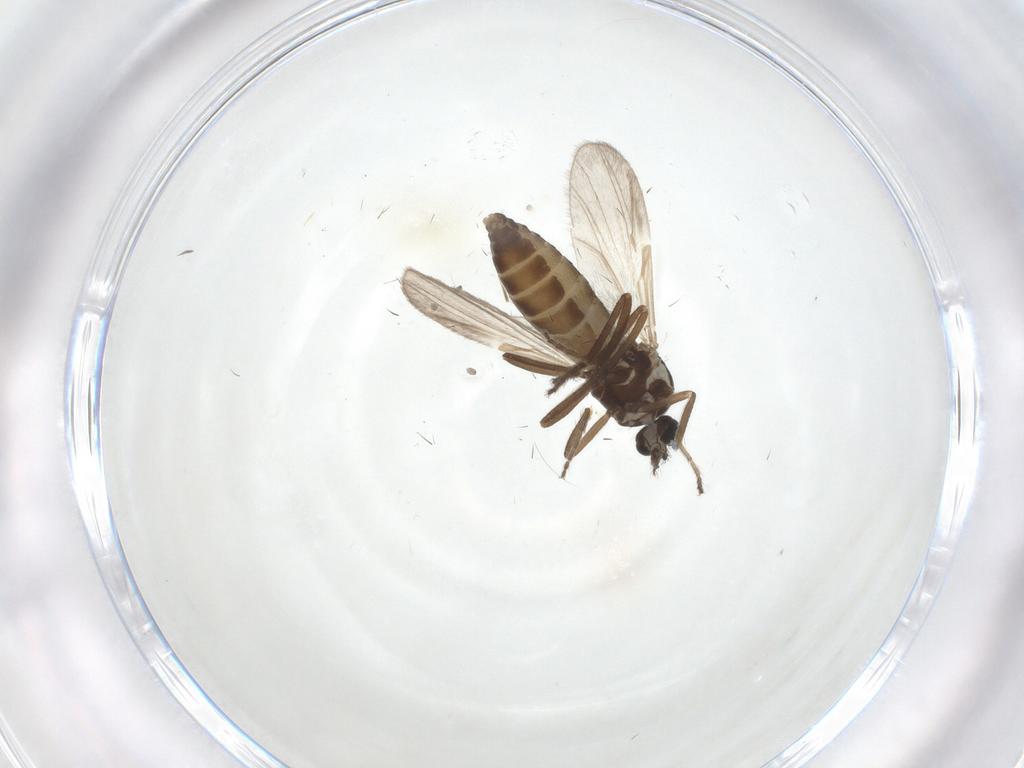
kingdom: Animalia
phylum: Arthropoda
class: Insecta
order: Diptera
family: Ceratopogonidae
